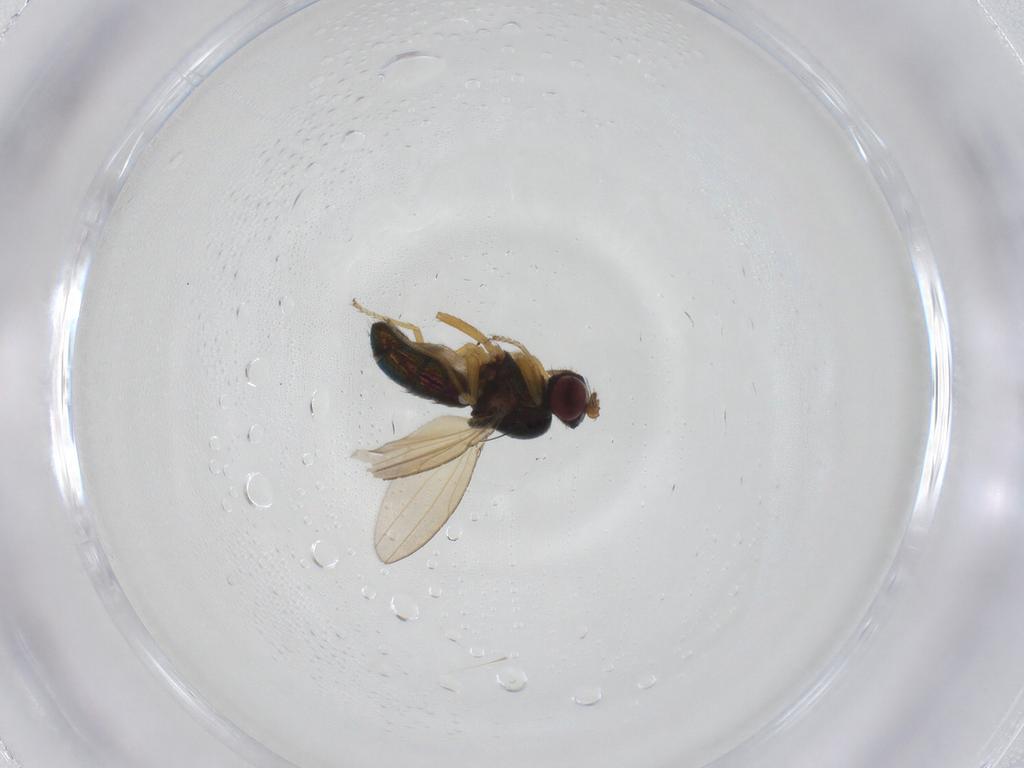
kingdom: Animalia
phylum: Arthropoda
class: Insecta
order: Diptera
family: Ephydridae
